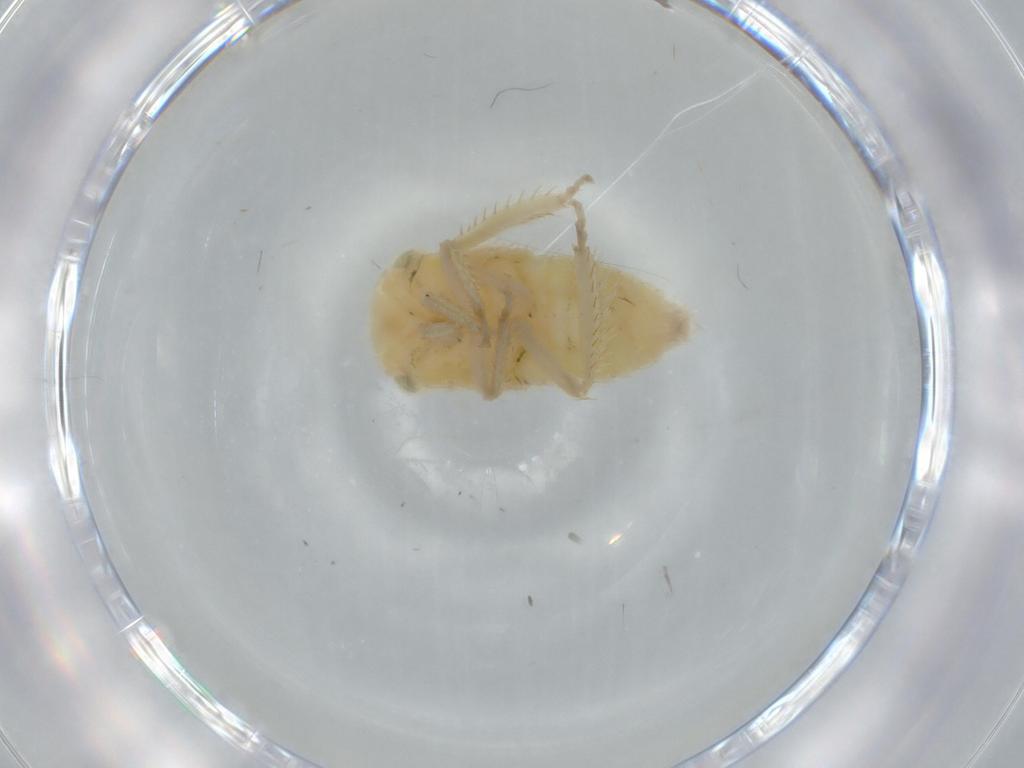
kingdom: Animalia
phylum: Arthropoda
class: Insecta
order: Hemiptera
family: Cicadellidae
